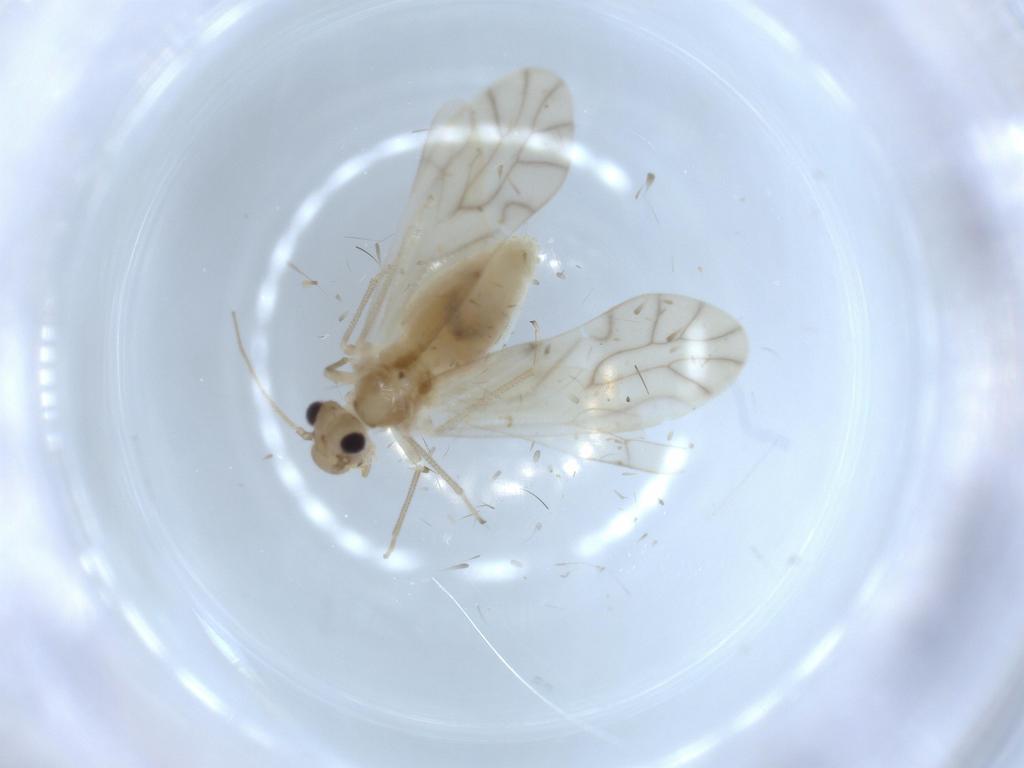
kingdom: Animalia
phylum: Arthropoda
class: Insecta
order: Psocodea
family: Caeciliusidae
